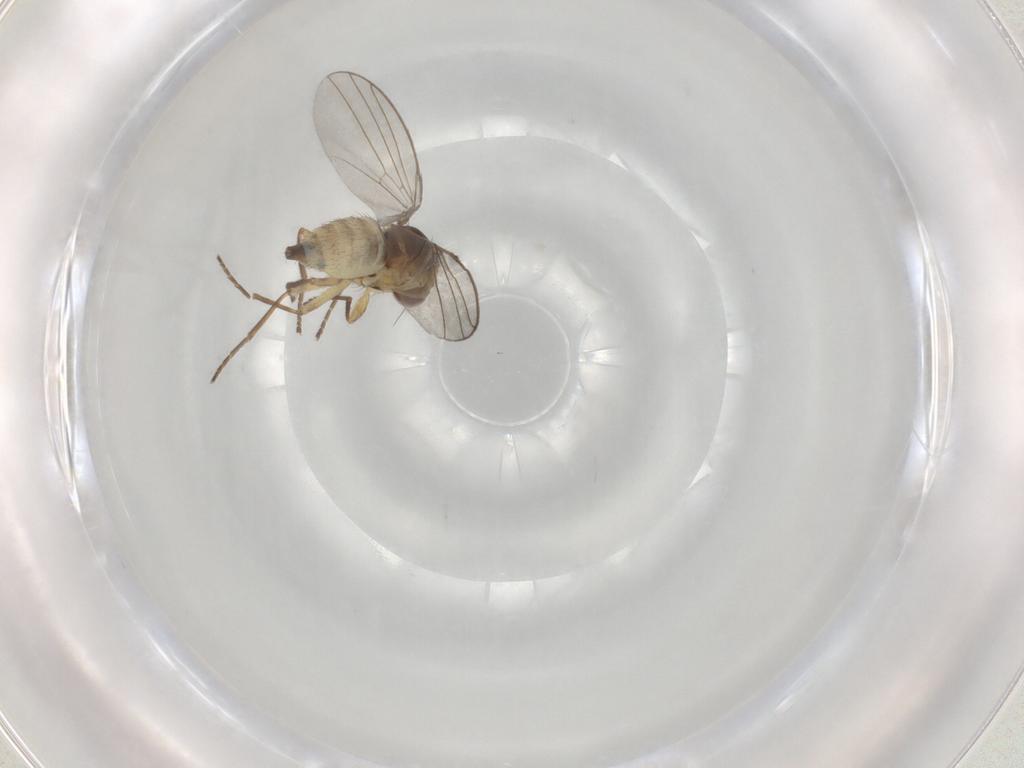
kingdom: Animalia
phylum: Arthropoda
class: Insecta
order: Diptera
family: Agromyzidae
